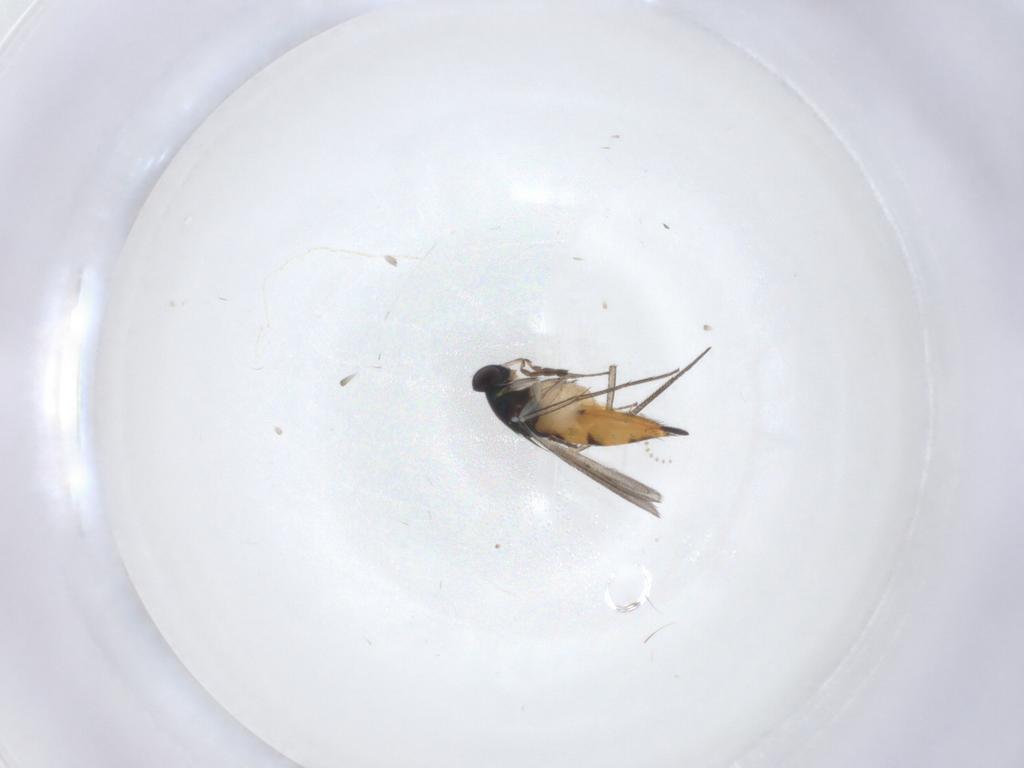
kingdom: Animalia
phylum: Arthropoda
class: Insecta
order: Hymenoptera
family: Eulophidae
